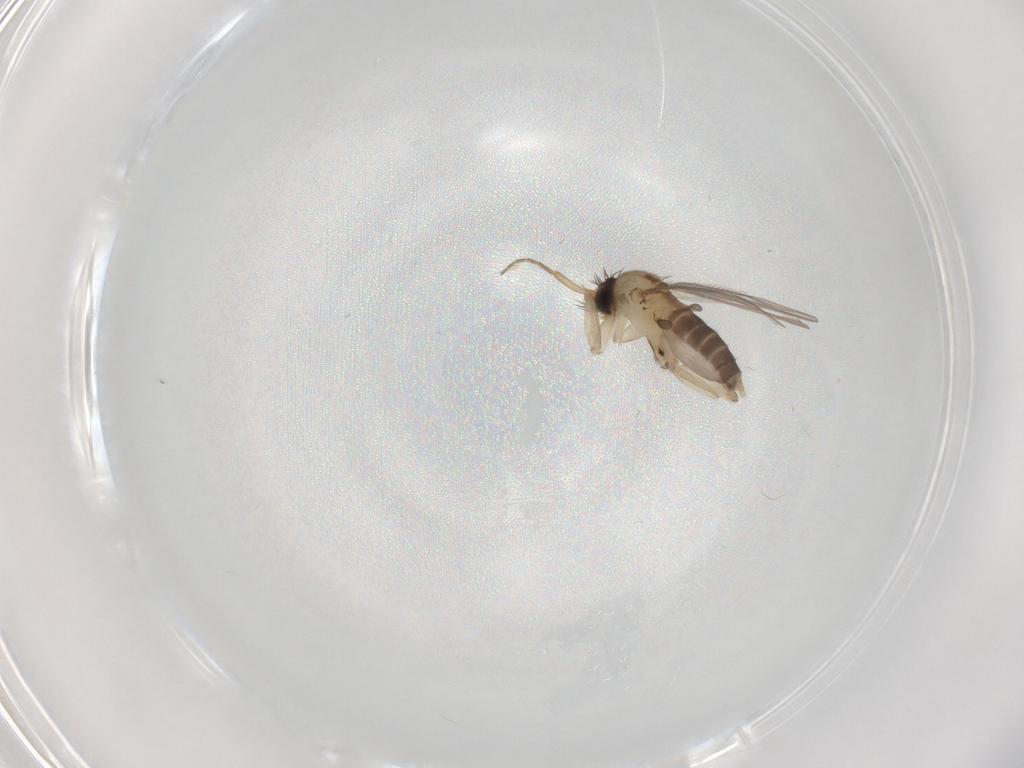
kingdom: Animalia
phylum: Arthropoda
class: Insecta
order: Diptera
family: Phoridae
